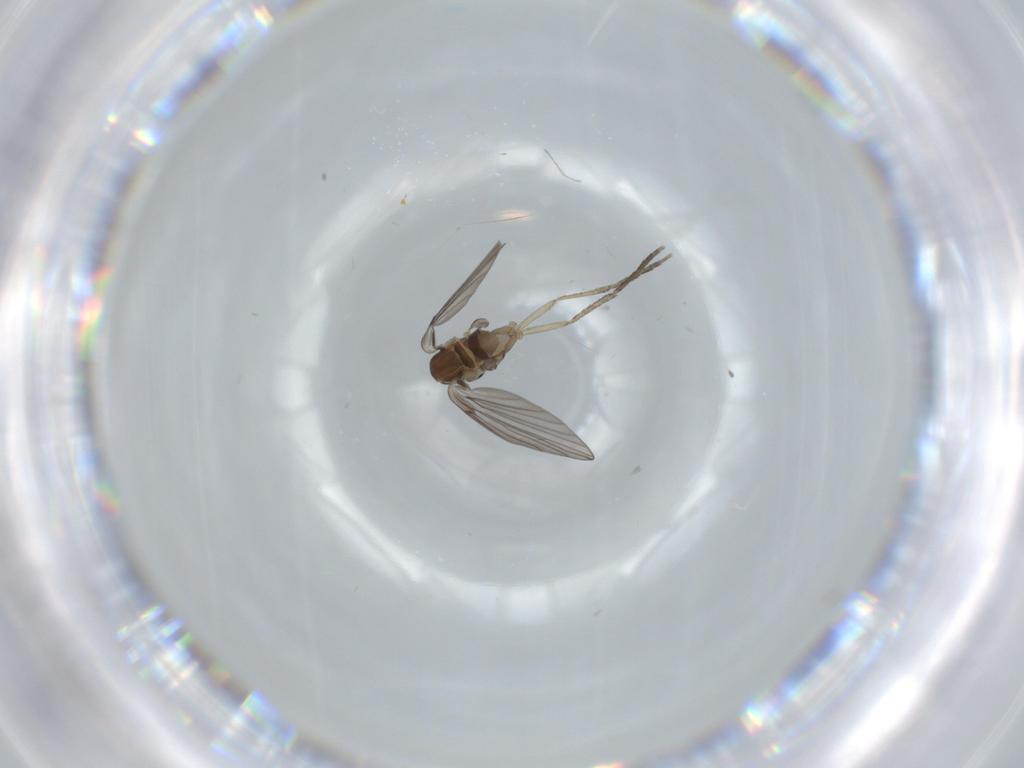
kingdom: Animalia
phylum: Arthropoda
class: Insecta
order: Diptera
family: Psychodidae
